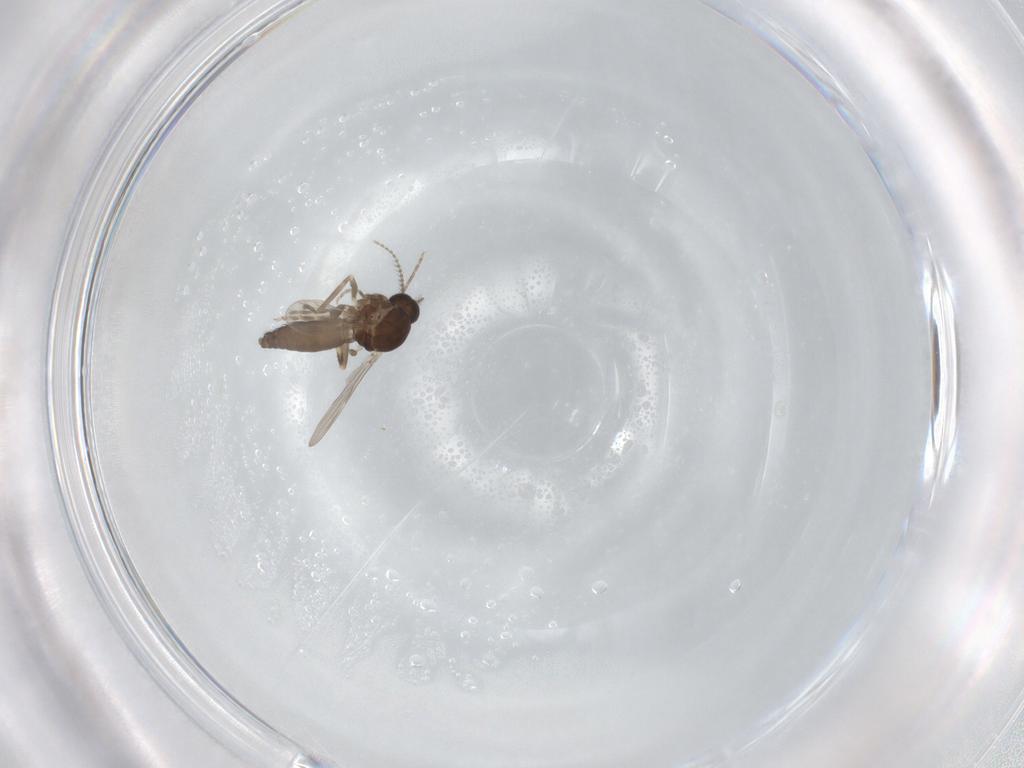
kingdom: Animalia
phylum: Arthropoda
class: Insecta
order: Diptera
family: Ceratopogonidae
